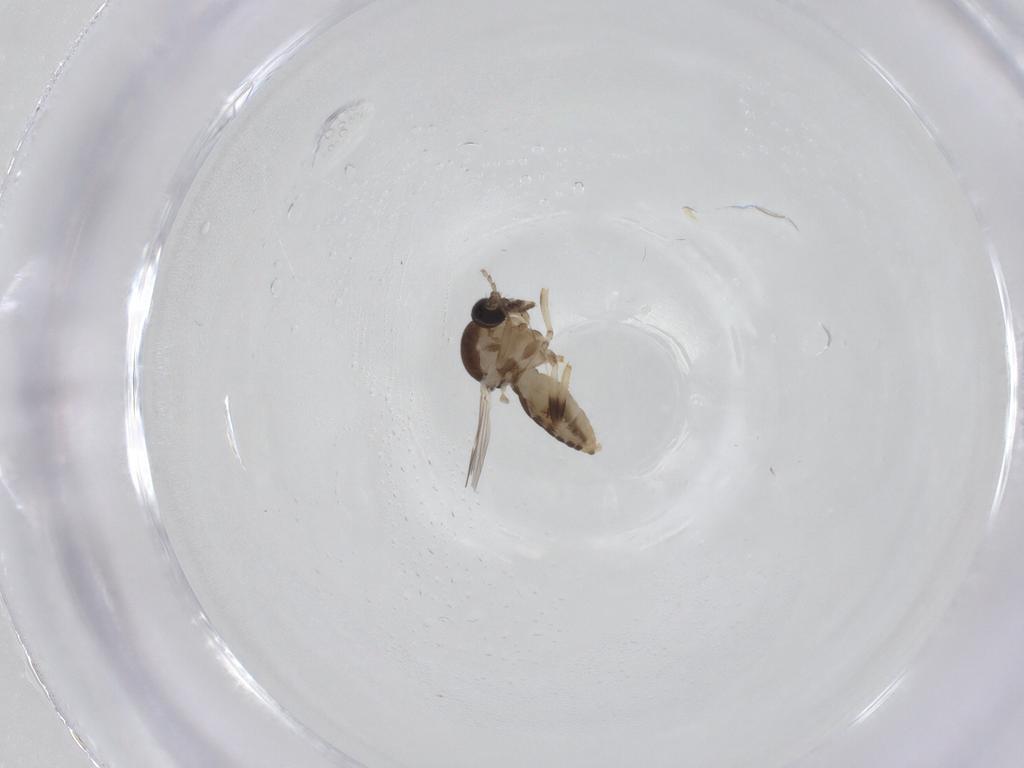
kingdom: Animalia
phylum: Arthropoda
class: Insecta
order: Diptera
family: Ceratopogonidae
